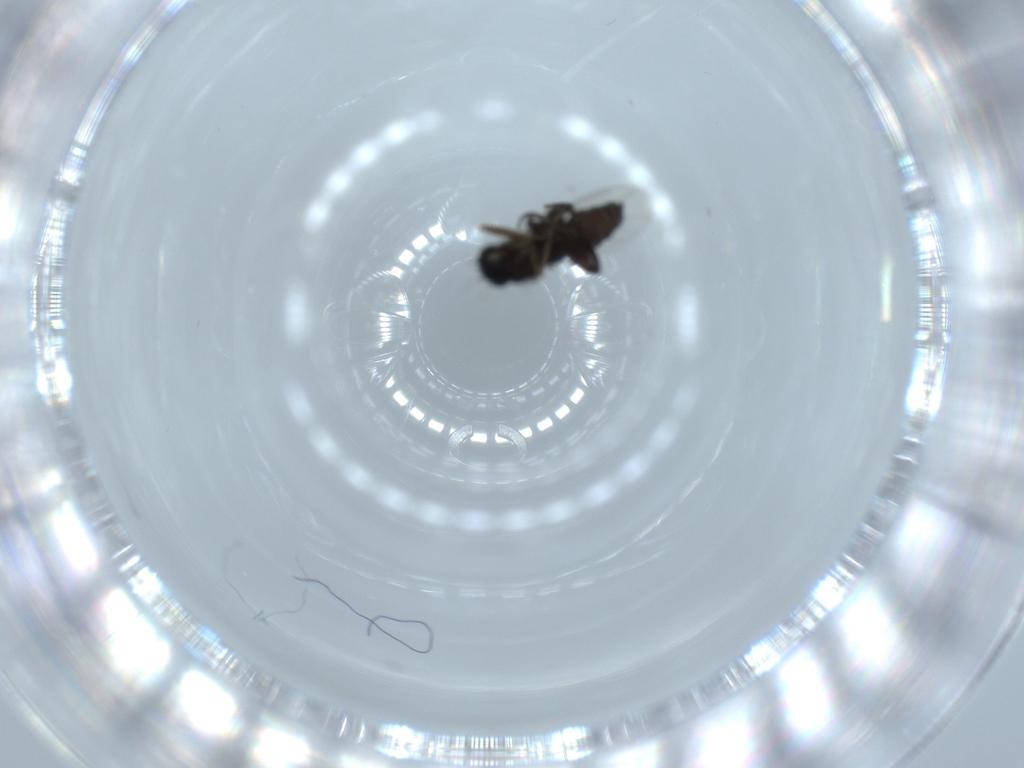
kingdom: Animalia
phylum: Arthropoda
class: Insecta
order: Diptera
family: Phoridae
